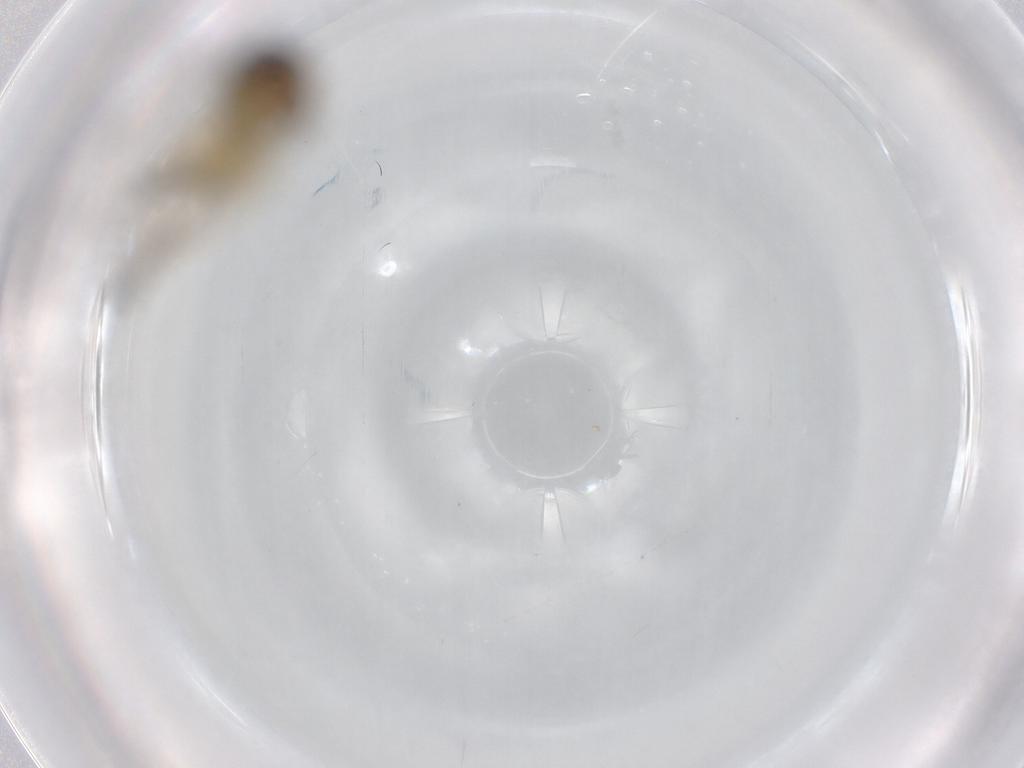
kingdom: Animalia
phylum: Arthropoda
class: Insecta
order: Diptera
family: Agromyzidae
